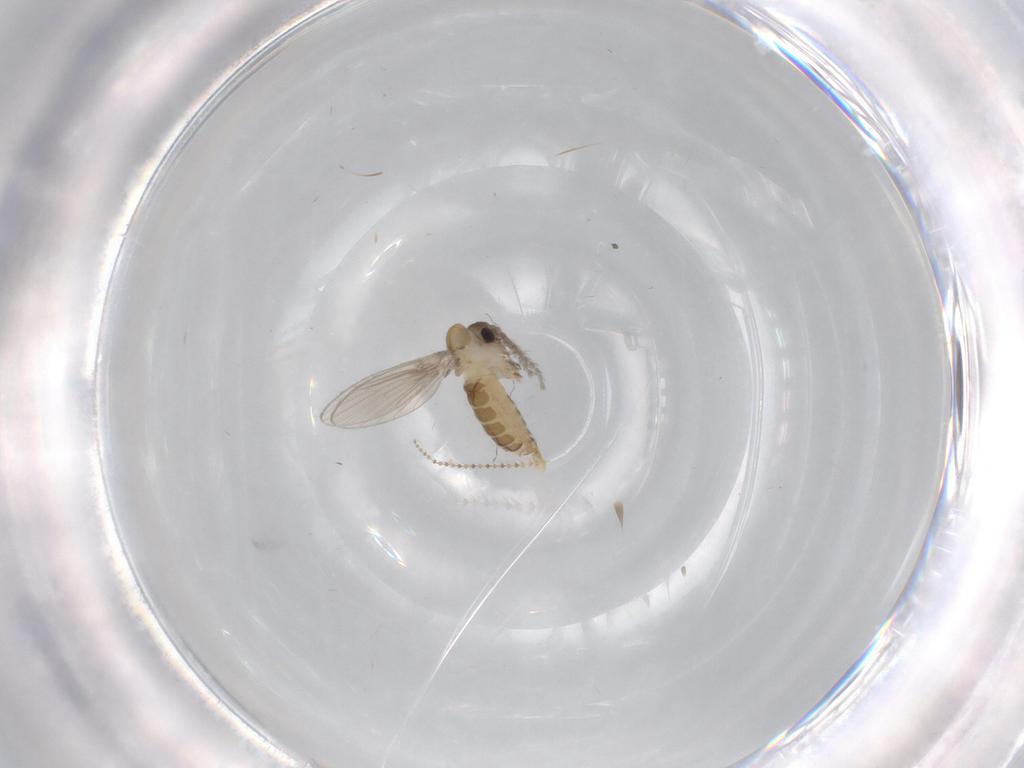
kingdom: Animalia
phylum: Arthropoda
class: Insecta
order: Diptera
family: Psychodidae
